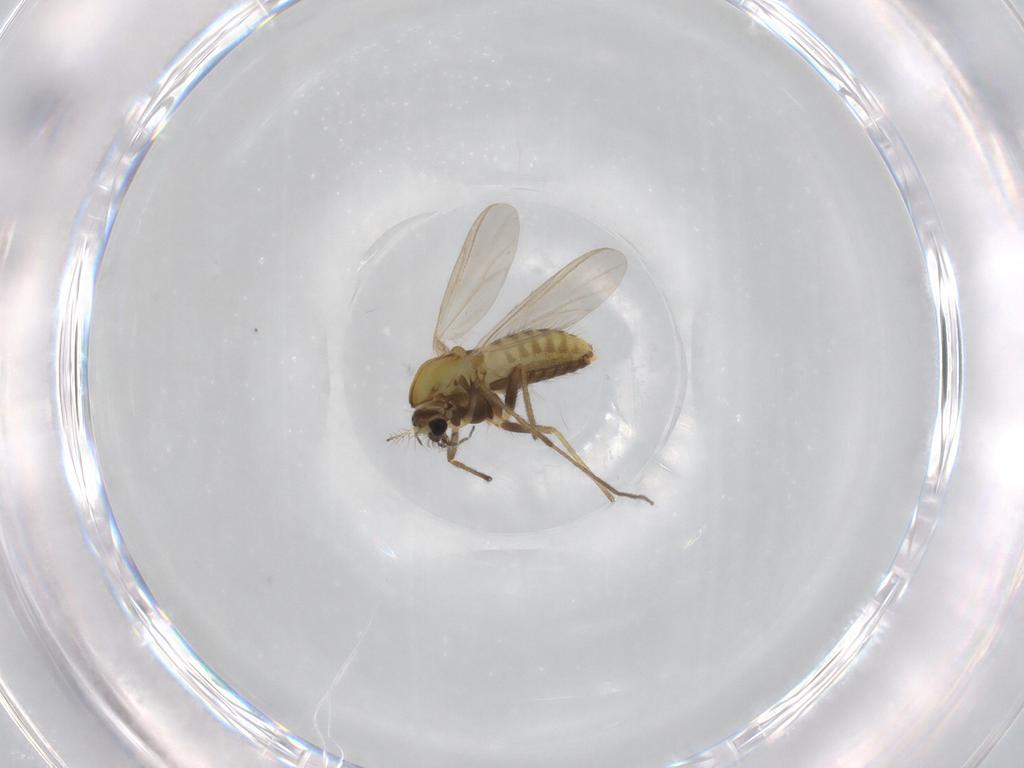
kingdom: Animalia
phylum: Arthropoda
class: Insecta
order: Diptera
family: Chironomidae
